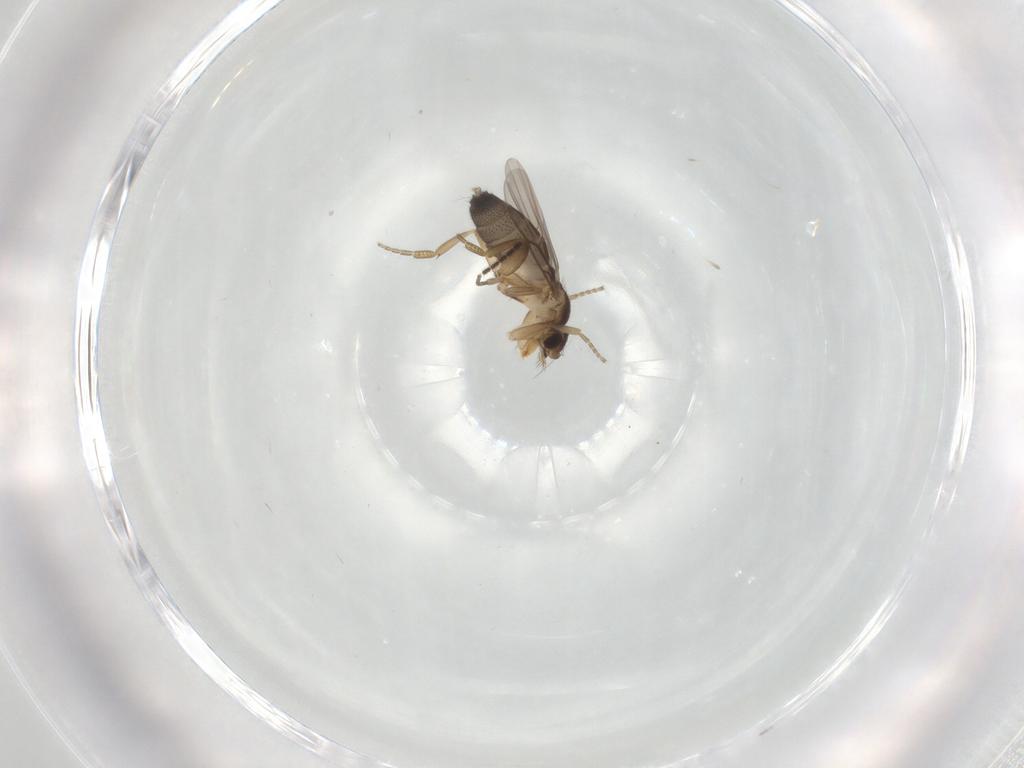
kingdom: Animalia
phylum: Arthropoda
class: Insecta
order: Diptera
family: Phoridae
